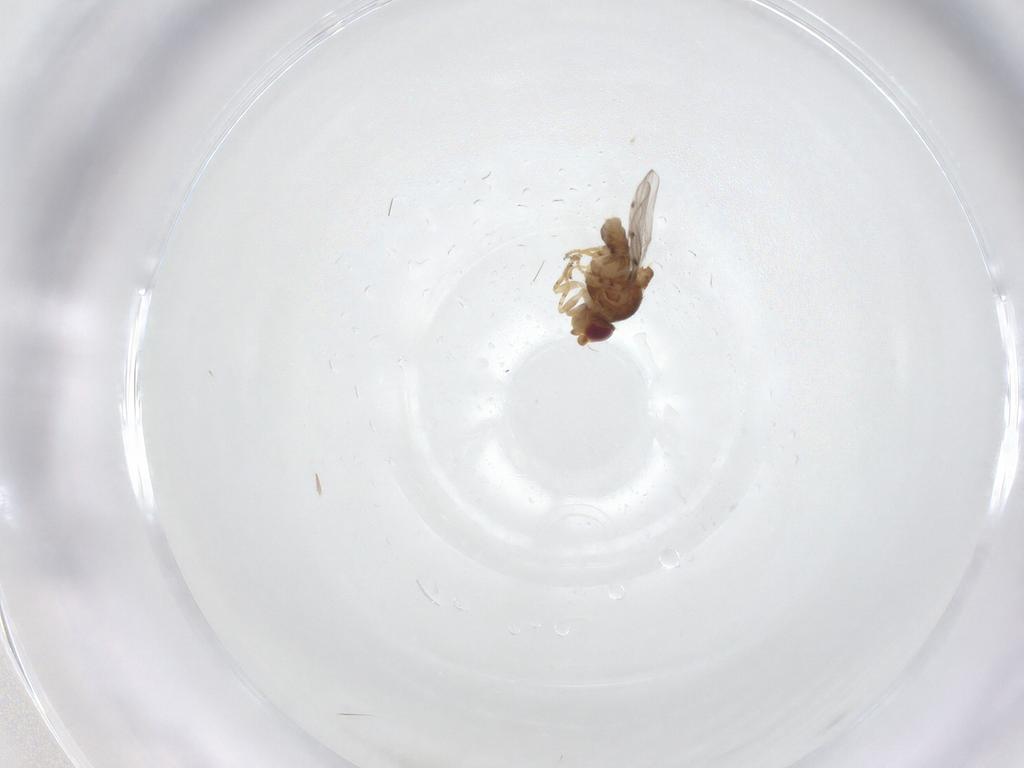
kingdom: Animalia
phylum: Arthropoda
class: Insecta
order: Diptera
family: Chloropidae
